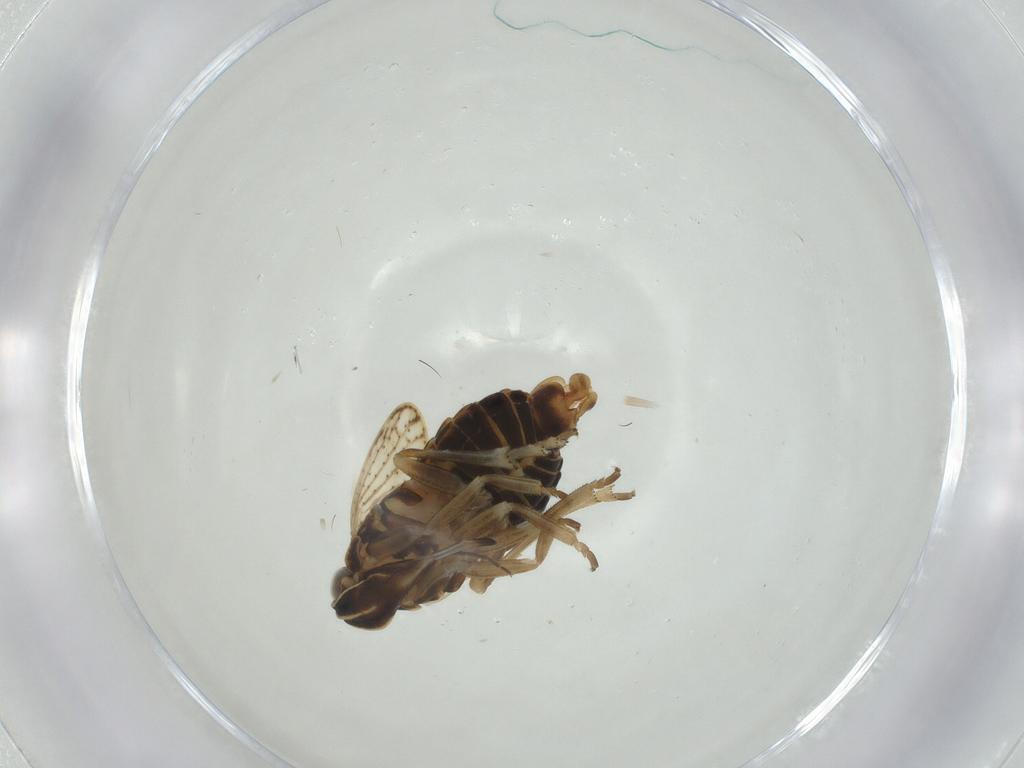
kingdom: Animalia
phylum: Arthropoda
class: Insecta
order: Hemiptera
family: Cixiidae
